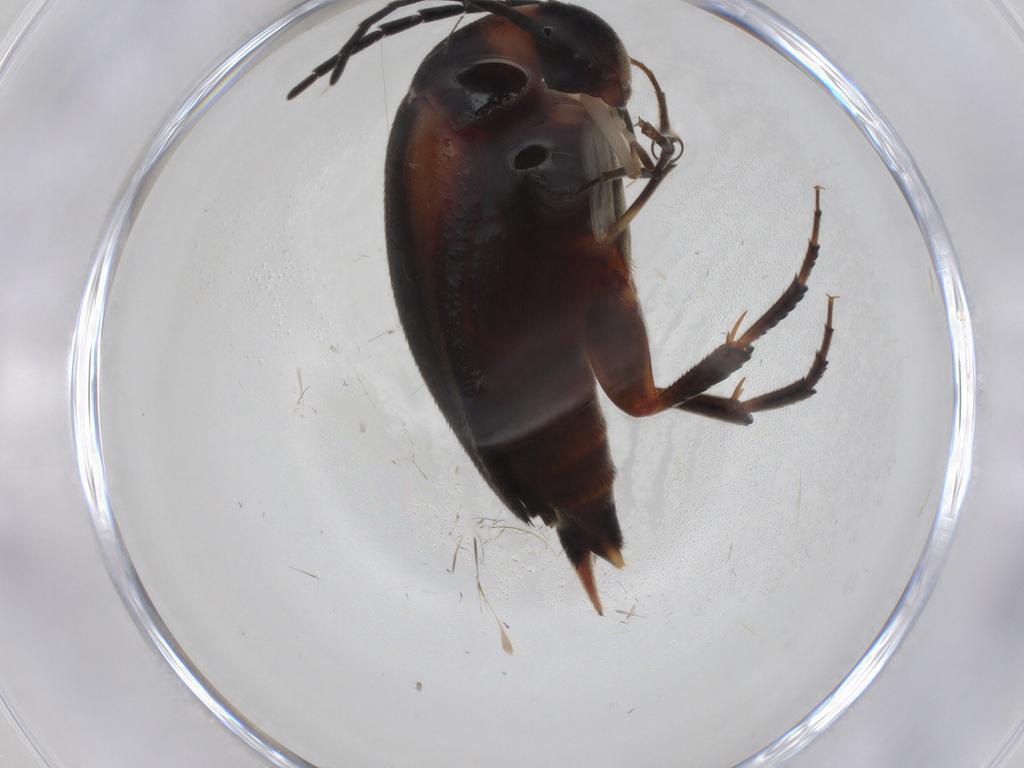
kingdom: Animalia
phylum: Arthropoda
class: Insecta
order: Coleoptera
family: Mordellidae
